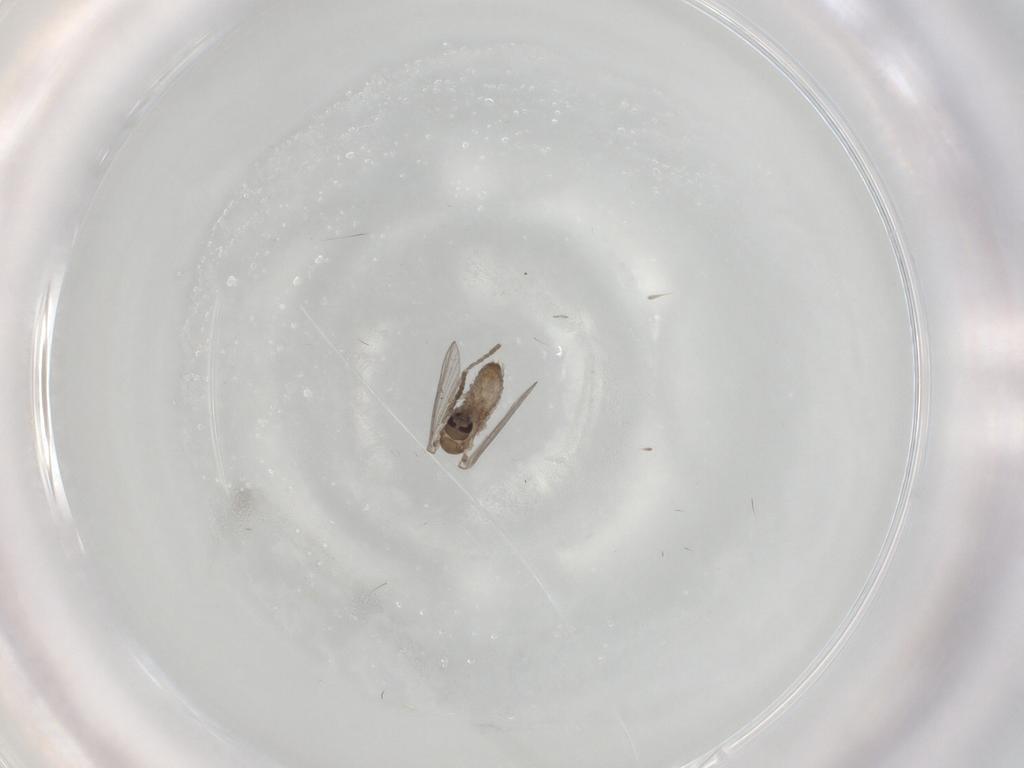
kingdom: Animalia
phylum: Arthropoda
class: Insecta
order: Diptera
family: Psychodidae
